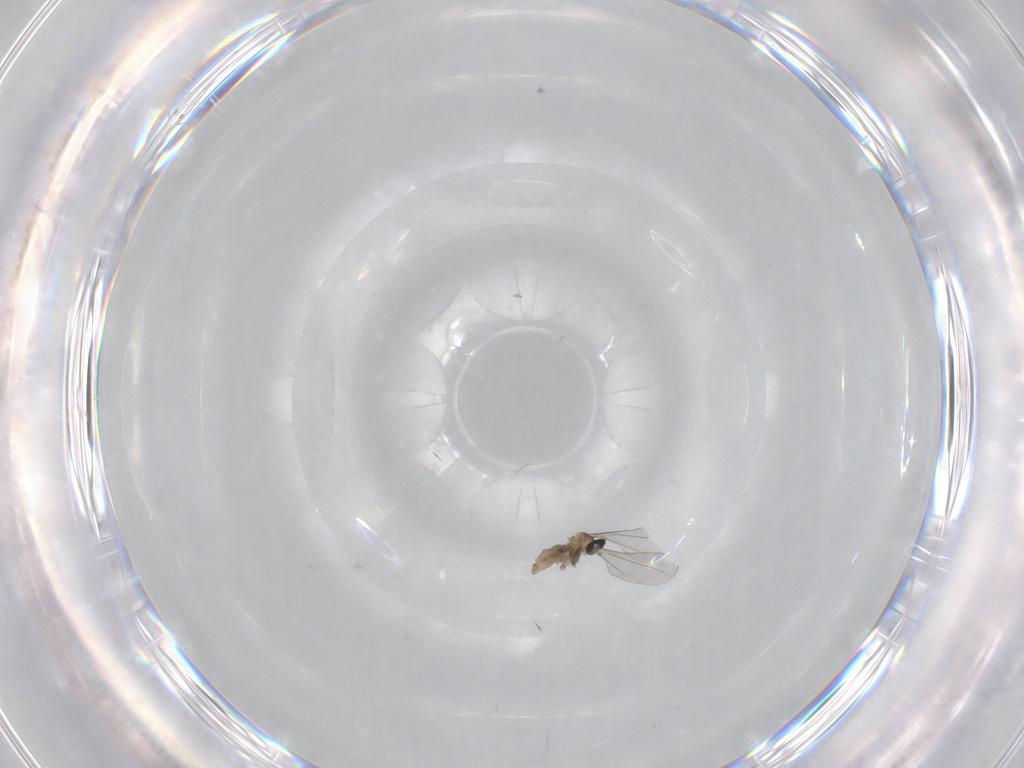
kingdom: Animalia
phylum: Arthropoda
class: Insecta
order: Diptera
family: Cecidomyiidae
